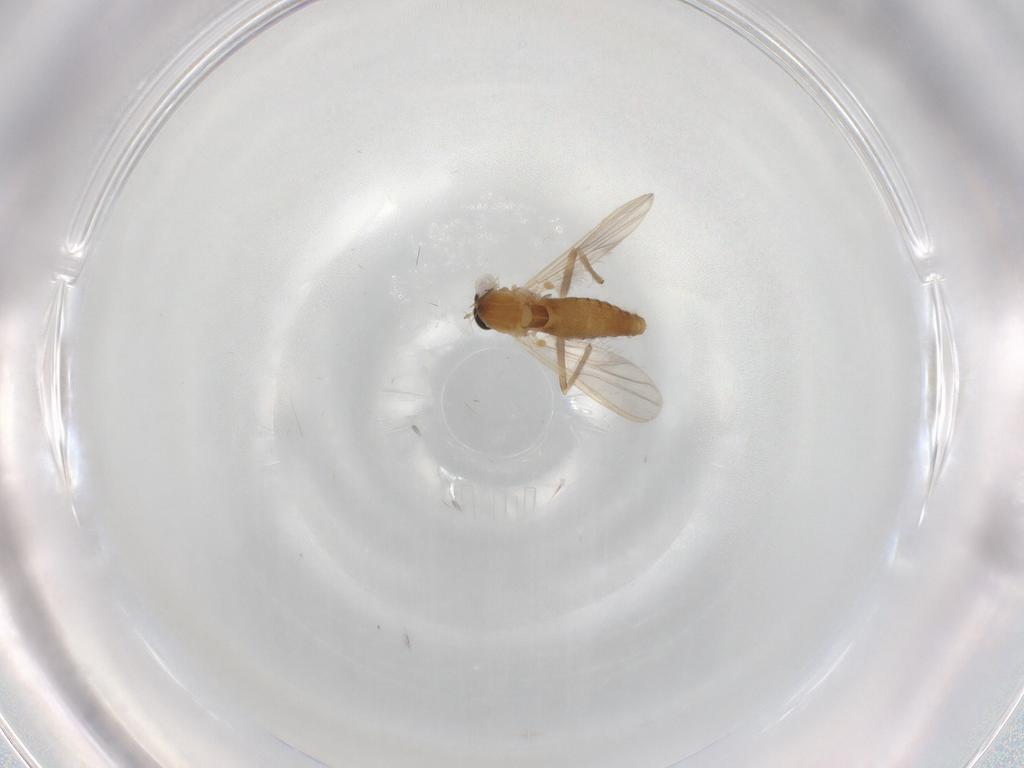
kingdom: Animalia
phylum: Arthropoda
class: Insecta
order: Diptera
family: Chironomidae
